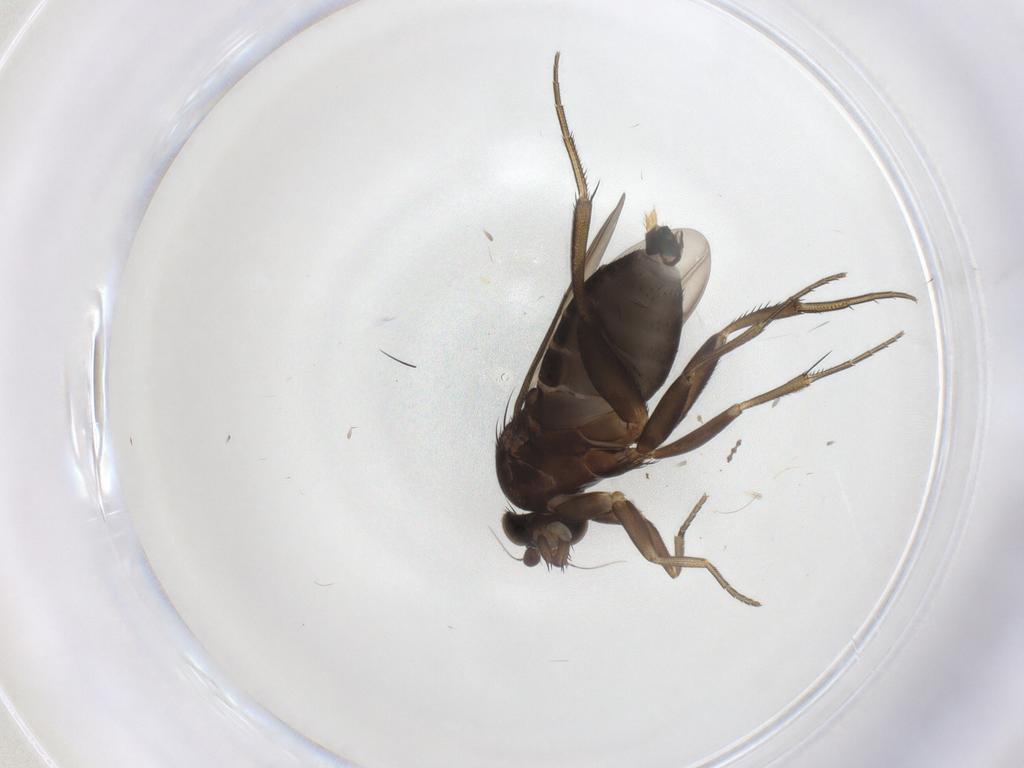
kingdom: Animalia
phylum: Arthropoda
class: Insecta
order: Diptera
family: Phoridae
